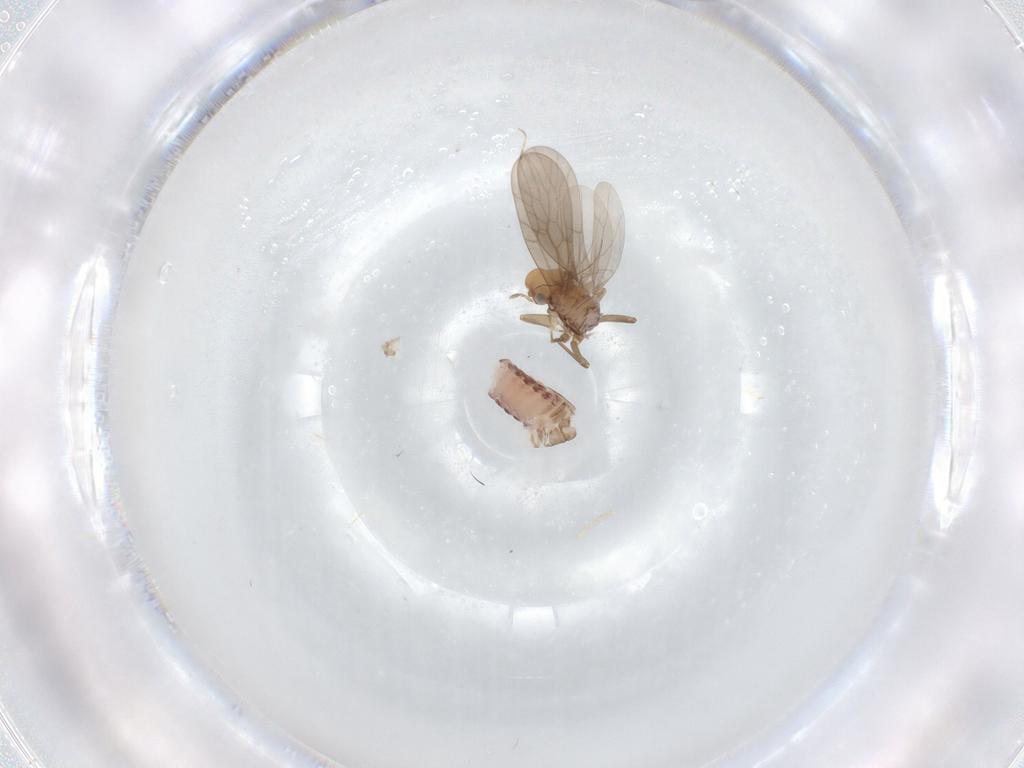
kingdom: Animalia
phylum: Arthropoda
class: Insecta
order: Psocodea
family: Lepidopsocidae
